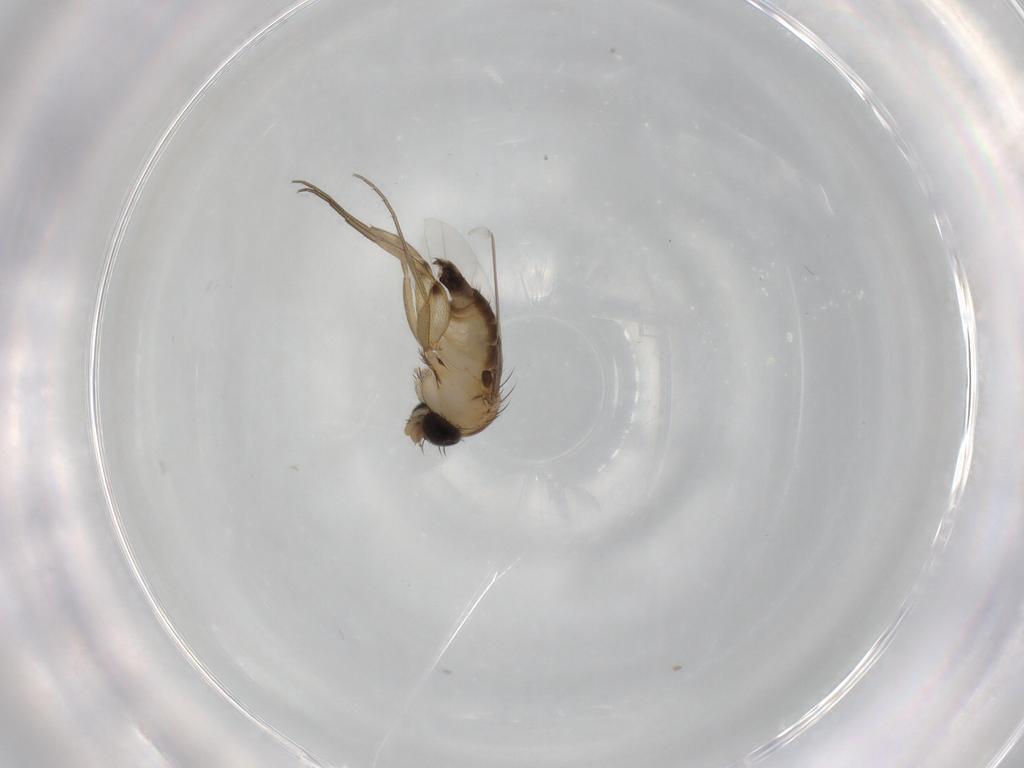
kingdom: Animalia
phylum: Arthropoda
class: Insecta
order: Diptera
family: Phoridae
